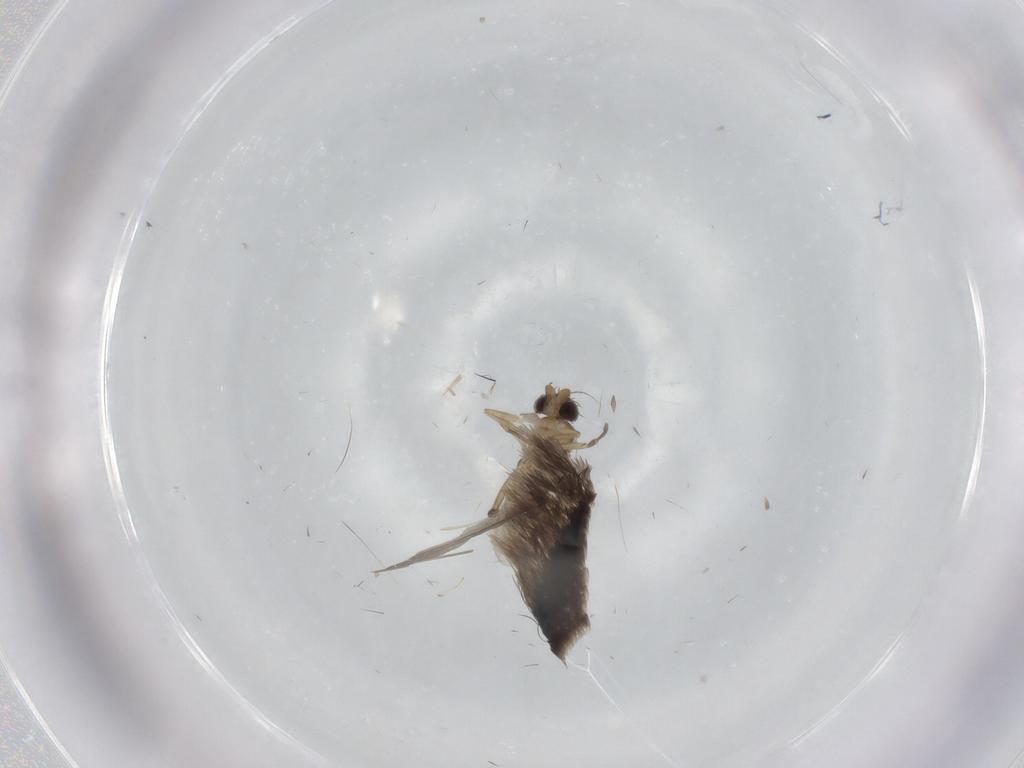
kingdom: Animalia
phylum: Arthropoda
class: Insecta
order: Diptera
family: Phoridae
